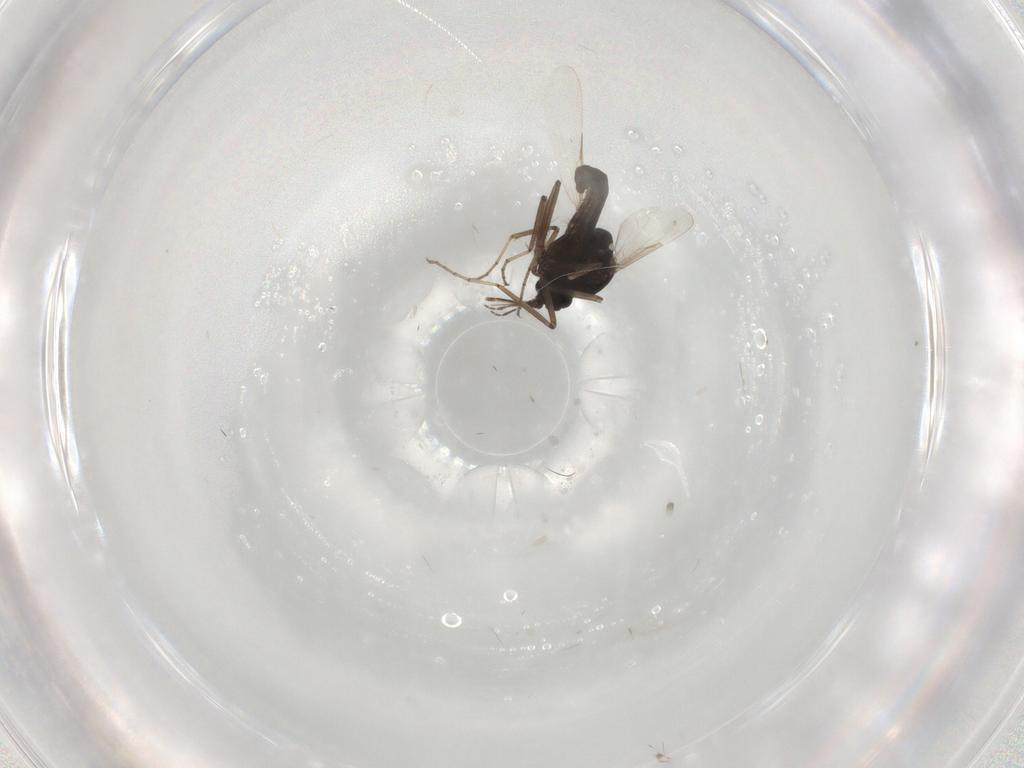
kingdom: Animalia
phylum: Arthropoda
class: Insecta
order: Diptera
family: Ceratopogonidae
